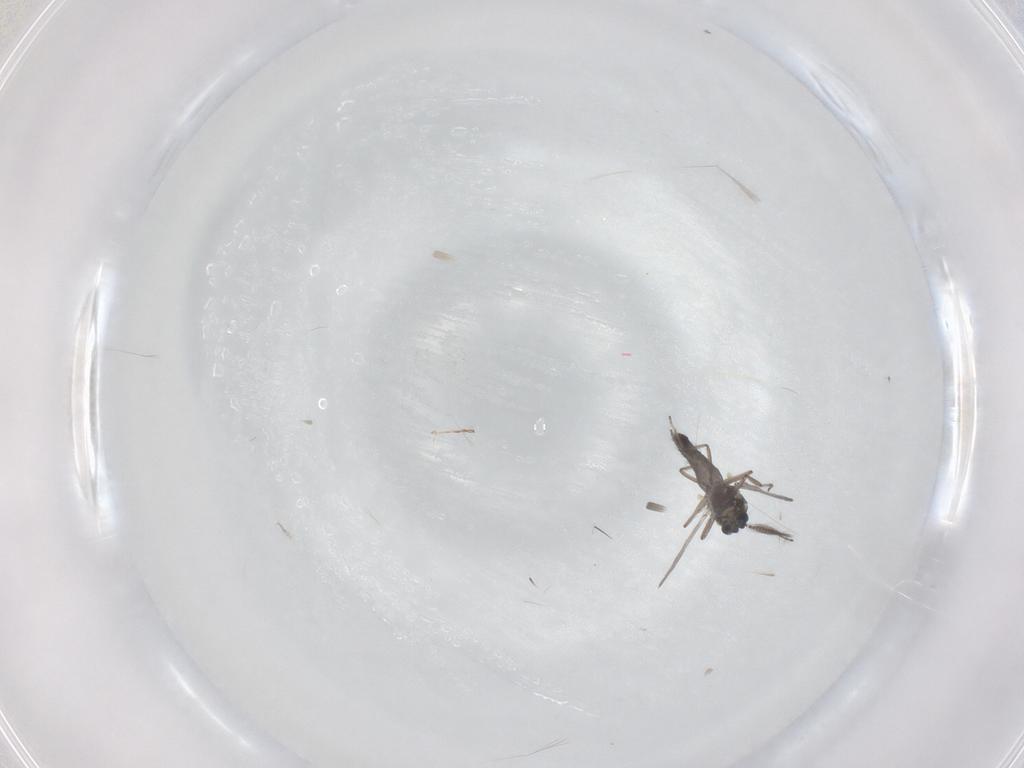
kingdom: Animalia
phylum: Arthropoda
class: Insecta
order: Diptera
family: Ceratopogonidae
